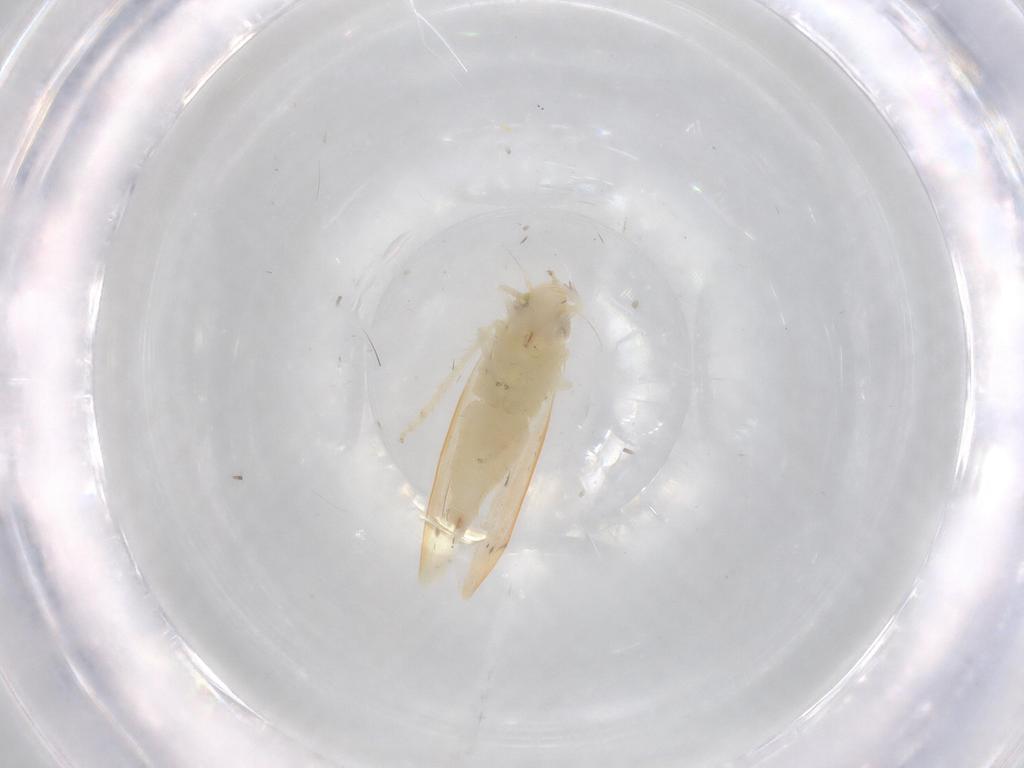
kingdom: Animalia
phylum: Arthropoda
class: Insecta
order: Hemiptera
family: Cicadellidae
